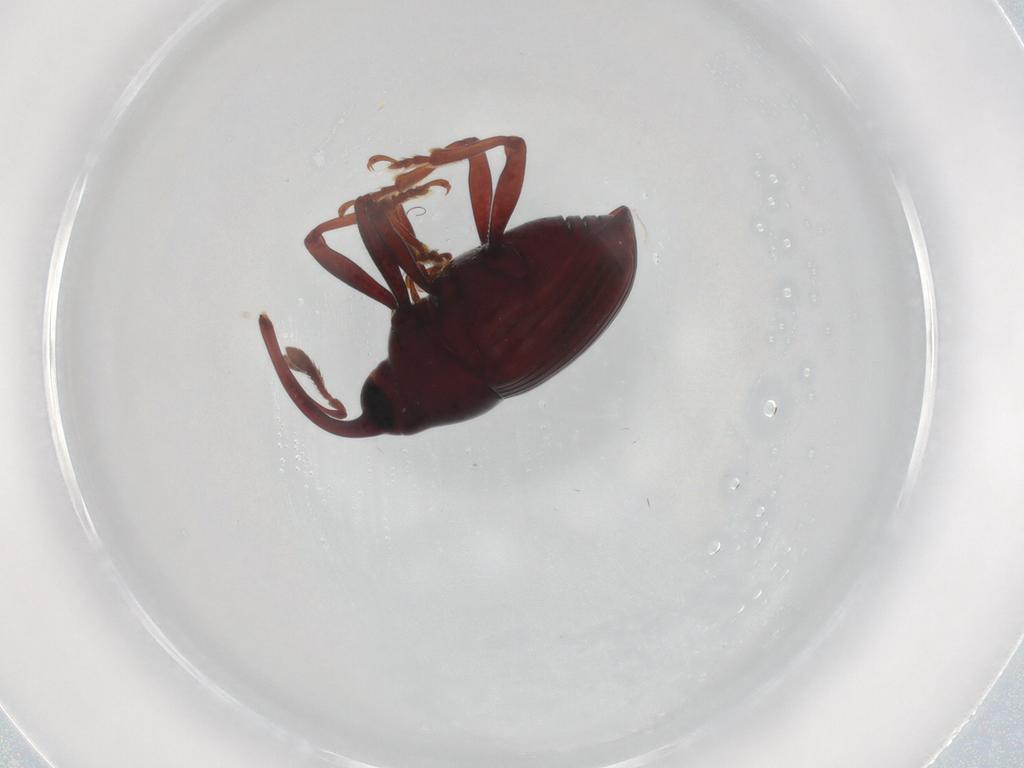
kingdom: Animalia
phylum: Arthropoda
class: Insecta
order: Coleoptera
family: Curculionidae
